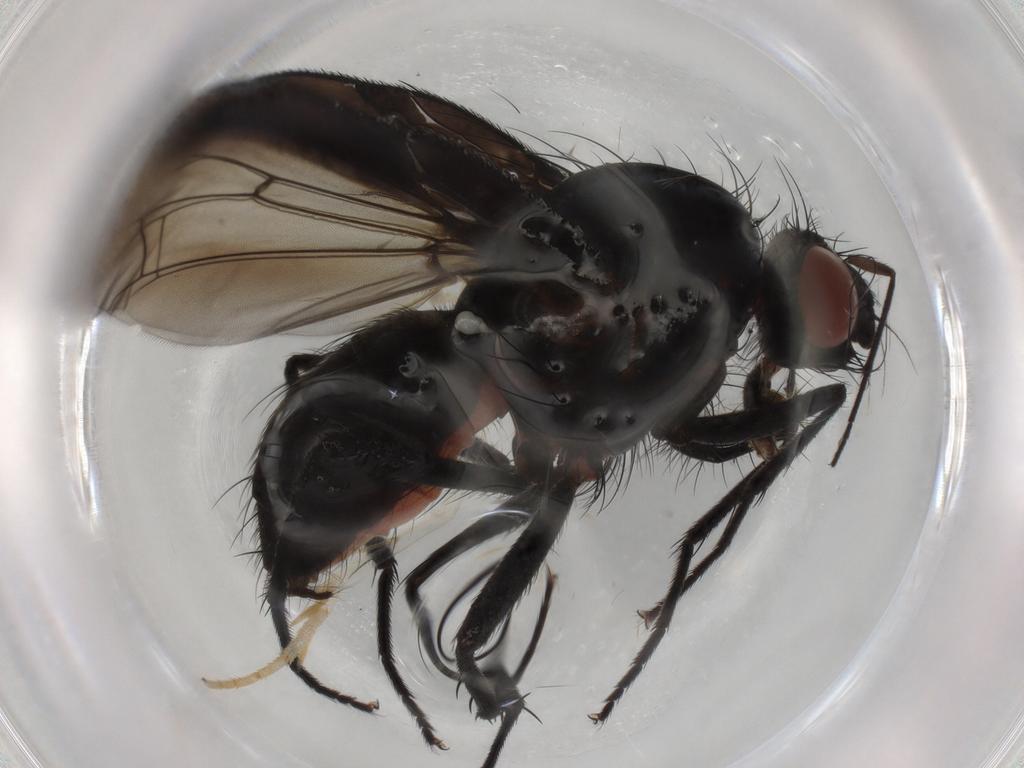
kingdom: Animalia
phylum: Arthropoda
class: Insecta
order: Diptera
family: Anthomyiidae
